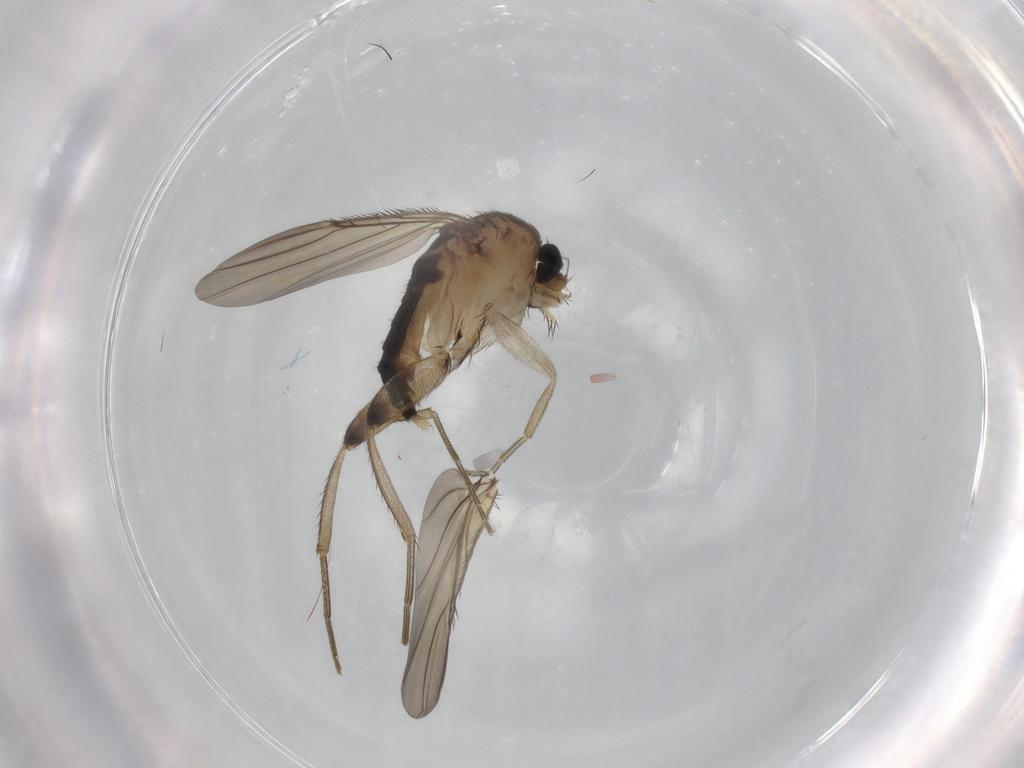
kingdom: Animalia
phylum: Arthropoda
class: Insecta
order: Diptera
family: Phoridae
